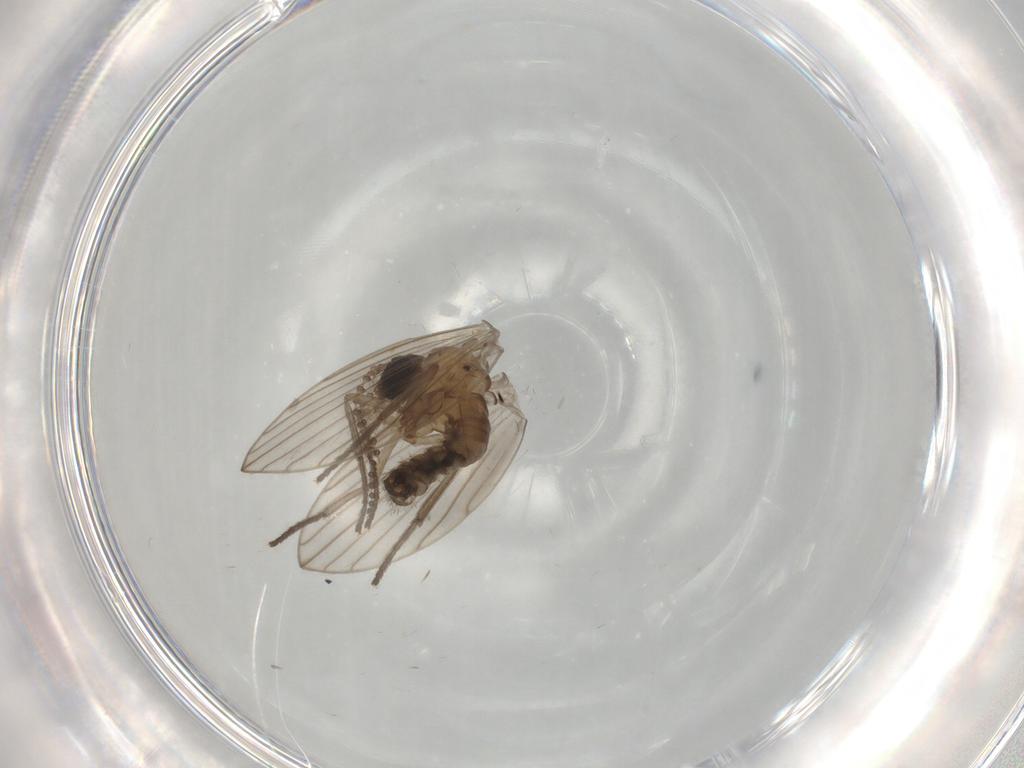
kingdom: Animalia
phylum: Arthropoda
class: Insecta
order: Diptera
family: Psychodidae
